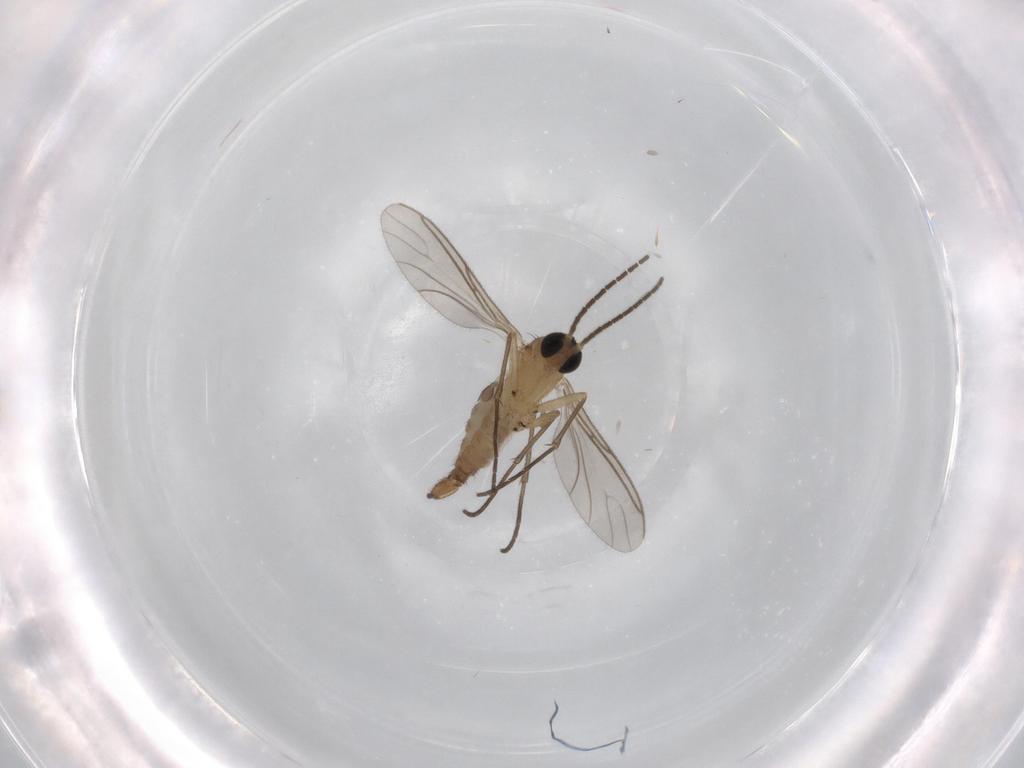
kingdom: Animalia
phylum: Arthropoda
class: Insecta
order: Diptera
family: Sciaridae
